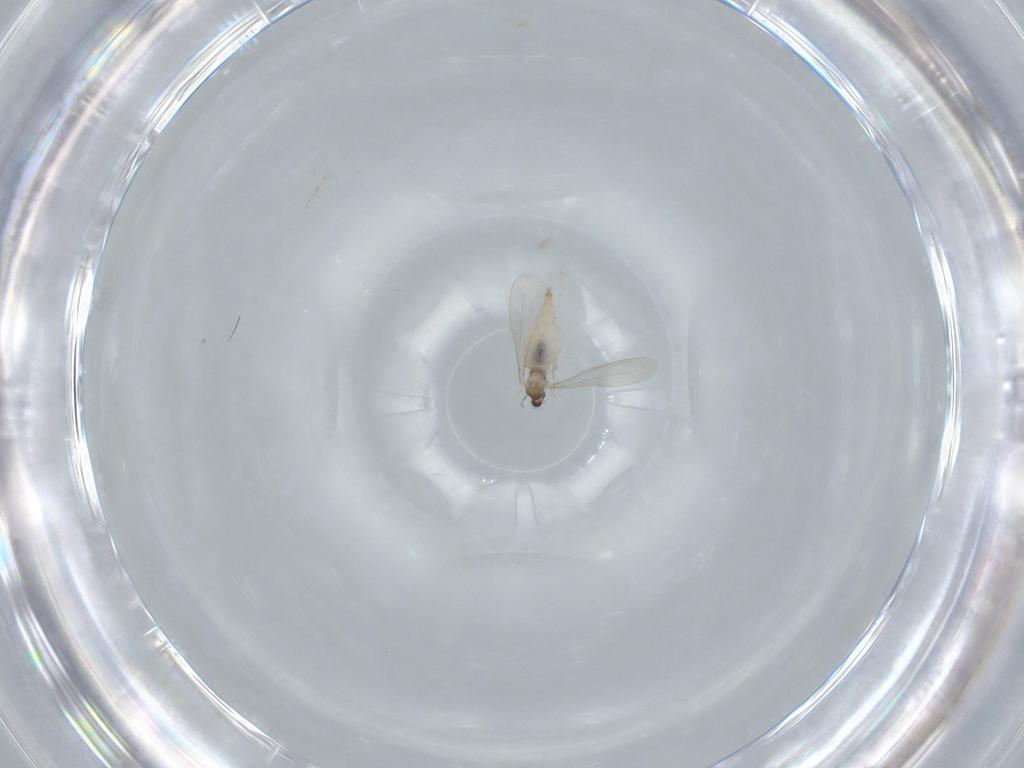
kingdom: Animalia
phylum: Arthropoda
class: Insecta
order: Diptera
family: Cecidomyiidae
